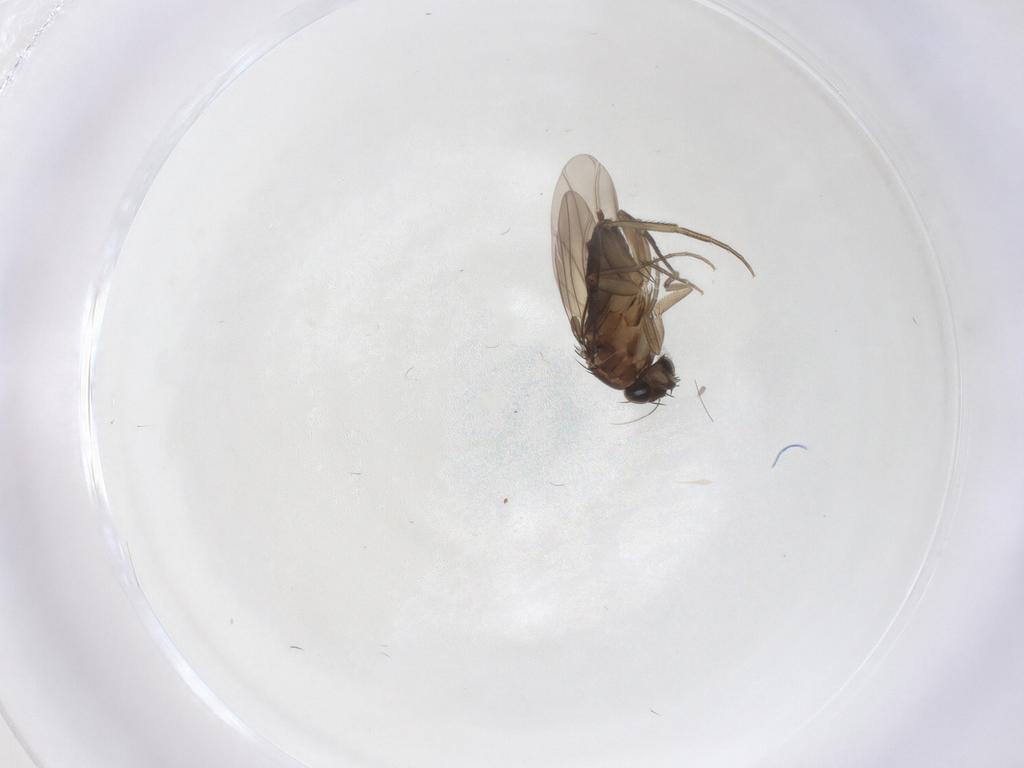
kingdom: Animalia
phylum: Arthropoda
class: Insecta
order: Diptera
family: Phoridae
